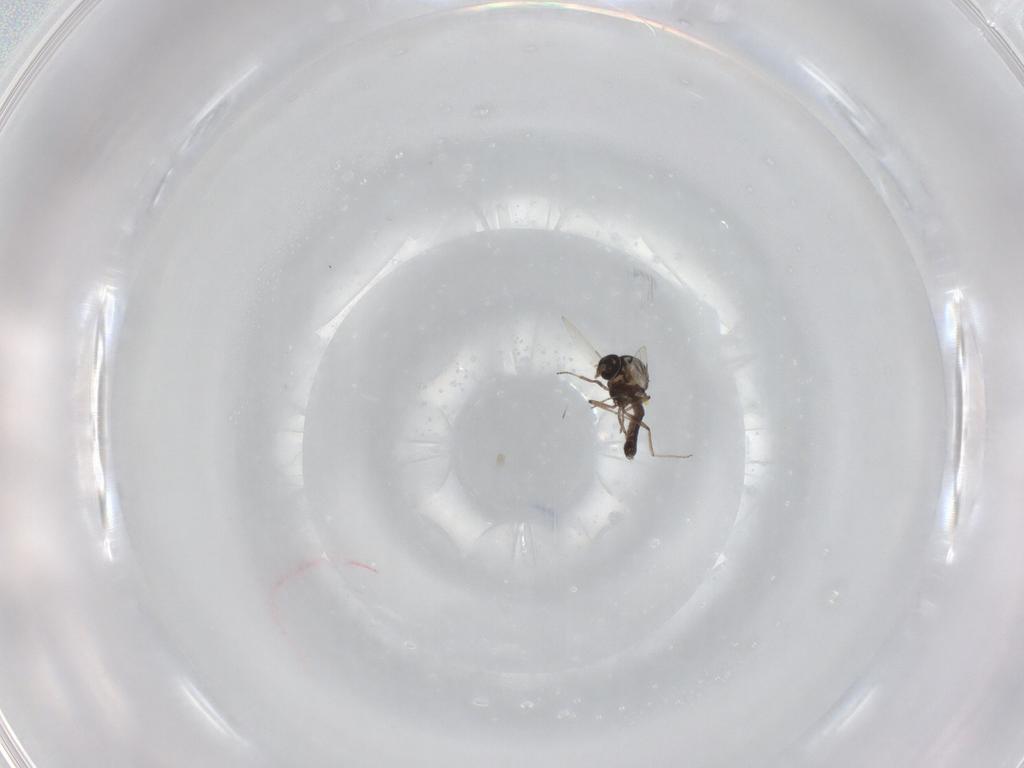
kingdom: Animalia
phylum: Arthropoda
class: Insecta
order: Diptera
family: Ceratopogonidae
